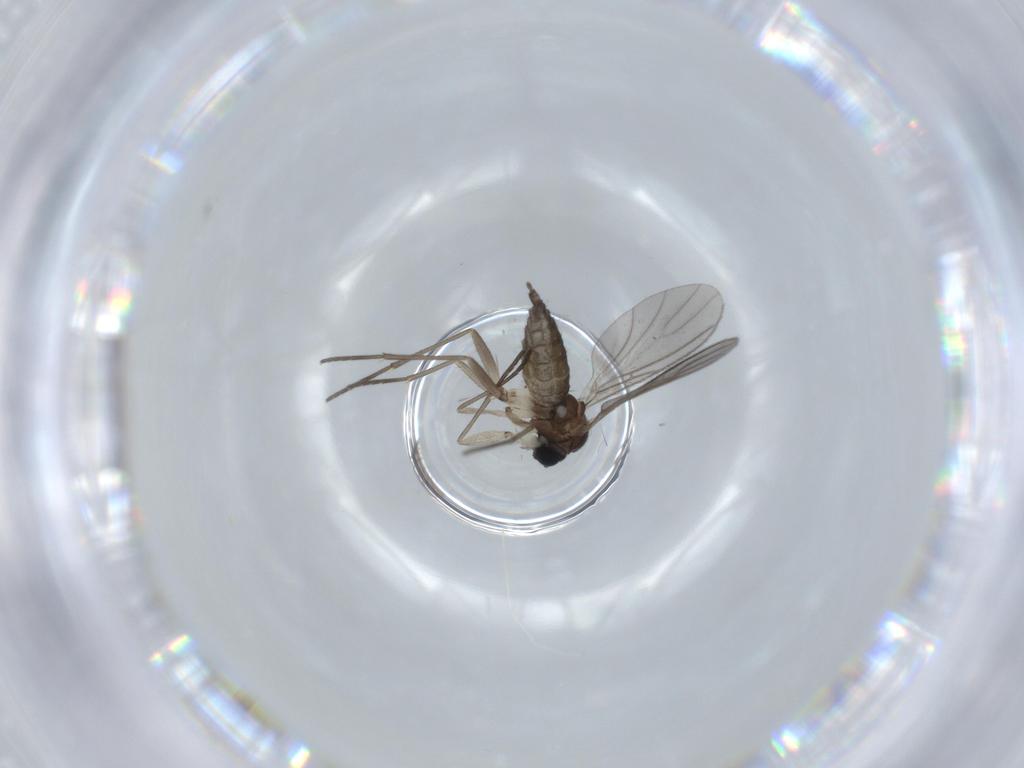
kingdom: Animalia
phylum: Arthropoda
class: Insecta
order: Diptera
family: Sciaridae
